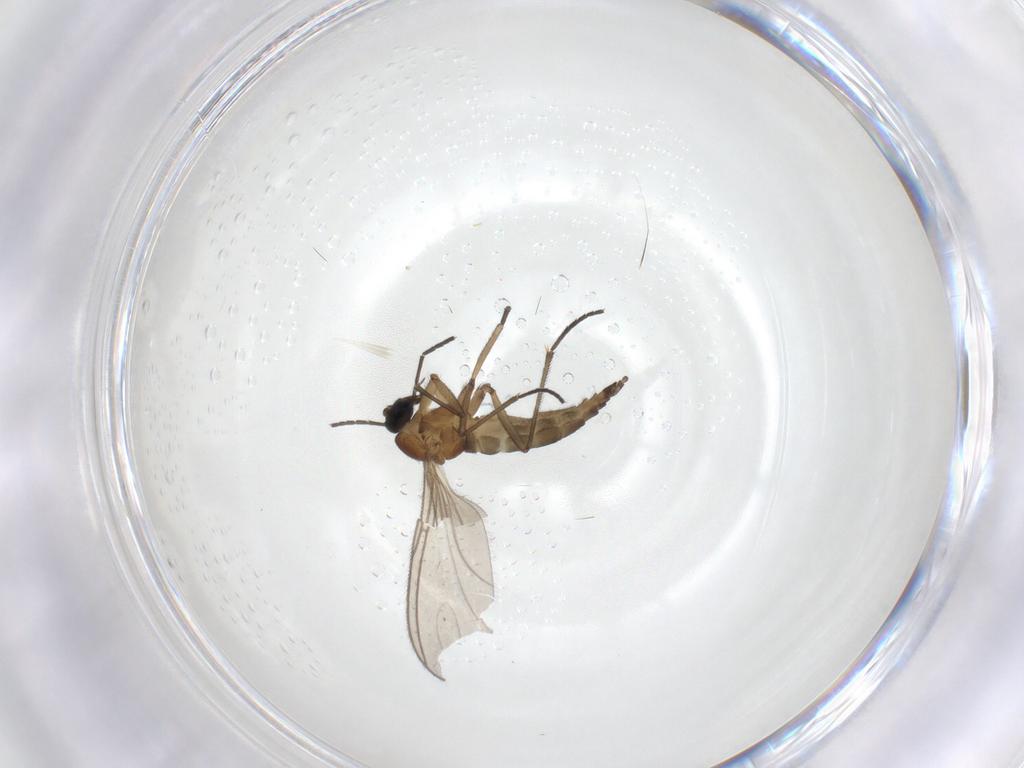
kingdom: Animalia
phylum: Arthropoda
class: Insecta
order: Diptera
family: Sciaridae
